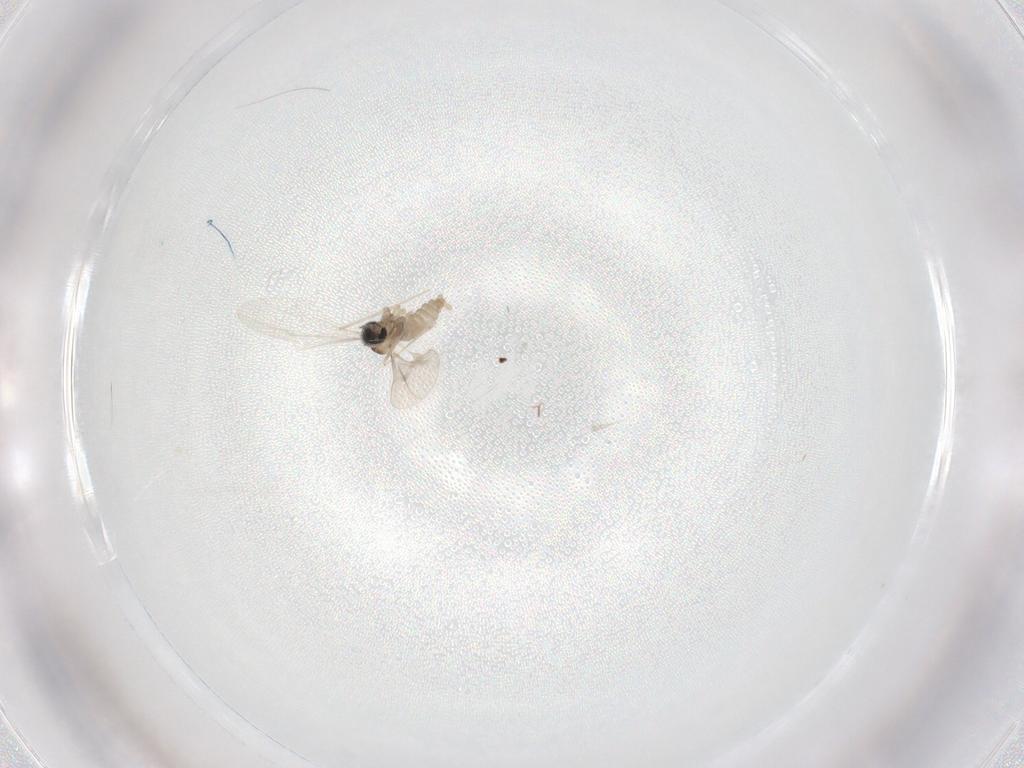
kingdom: Animalia
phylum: Arthropoda
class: Insecta
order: Diptera
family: Cecidomyiidae
